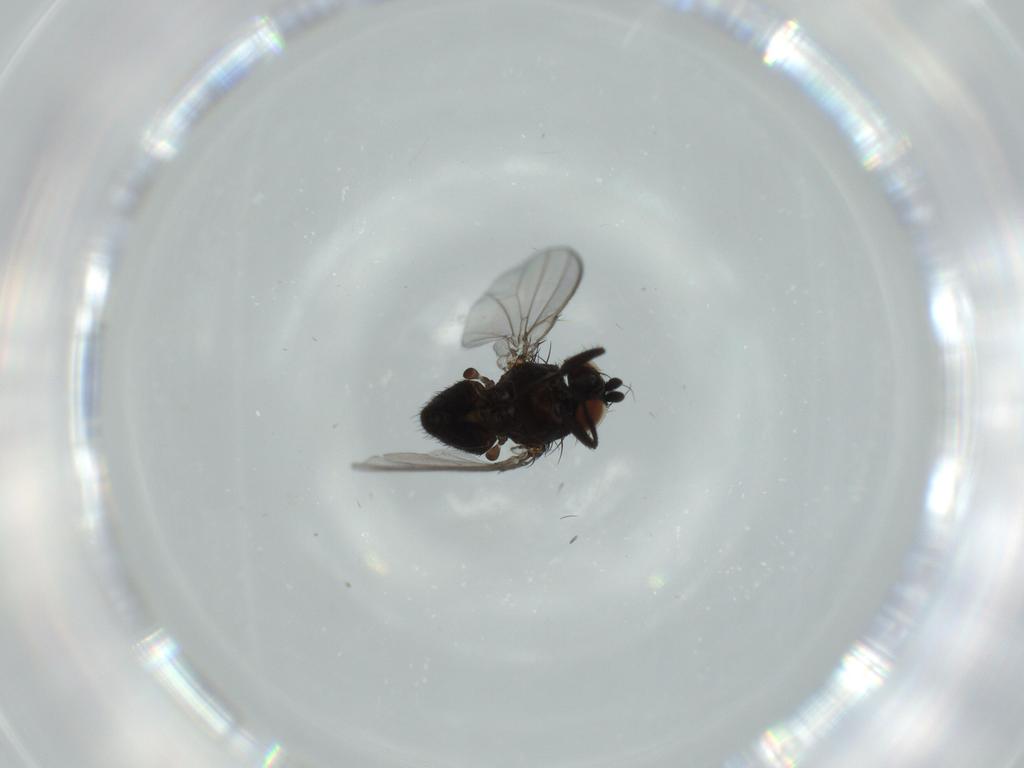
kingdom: Animalia
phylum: Arthropoda
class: Insecta
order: Diptera
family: Milichiidae
